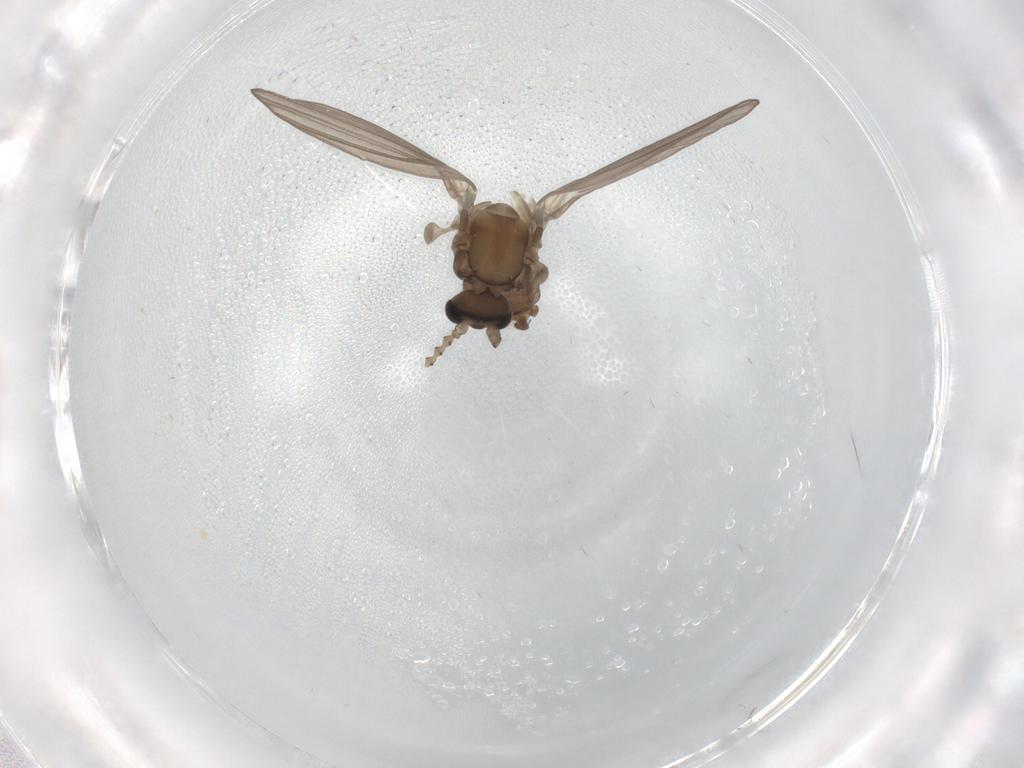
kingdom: Animalia
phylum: Arthropoda
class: Insecta
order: Diptera
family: Psychodidae
